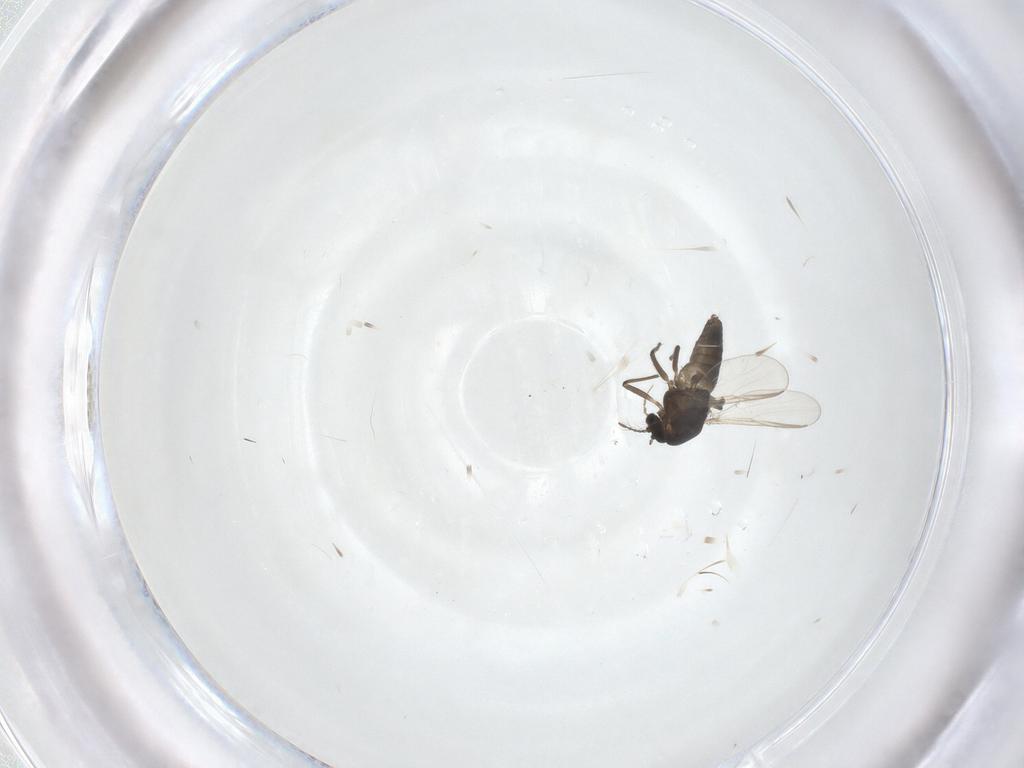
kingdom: Animalia
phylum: Arthropoda
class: Insecta
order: Diptera
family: Chironomidae
